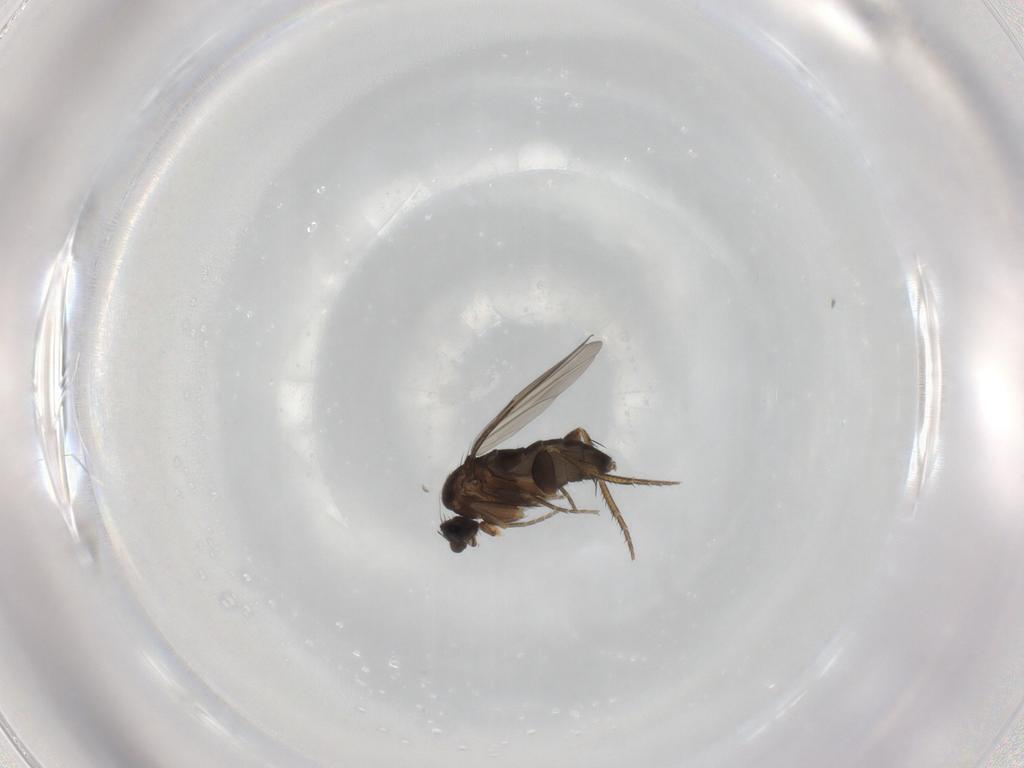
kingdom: Animalia
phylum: Arthropoda
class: Insecta
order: Diptera
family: Phoridae
